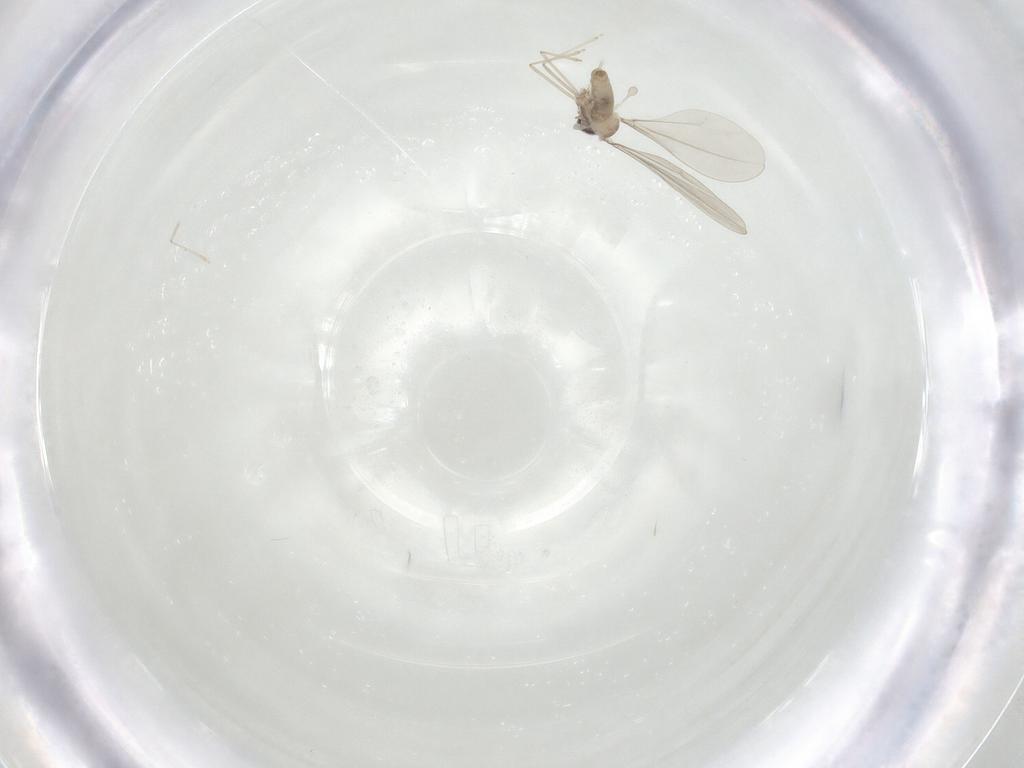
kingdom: Animalia
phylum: Arthropoda
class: Insecta
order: Diptera
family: Cecidomyiidae
